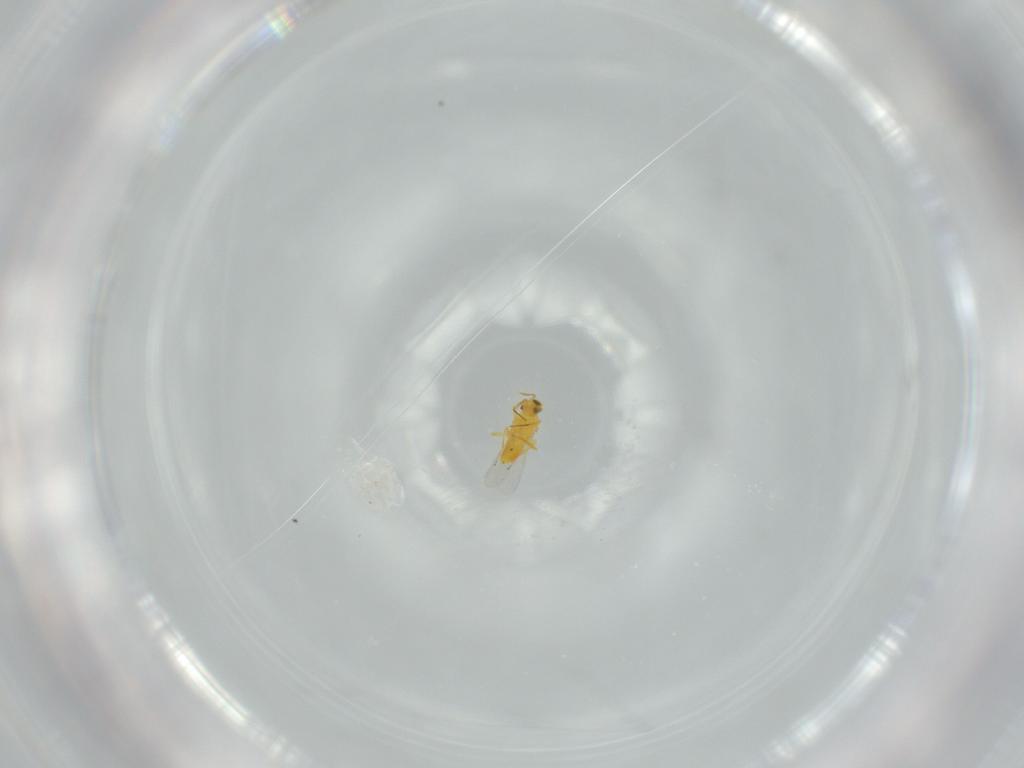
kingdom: Animalia
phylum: Arthropoda
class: Insecta
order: Hymenoptera
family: Aphelinidae
